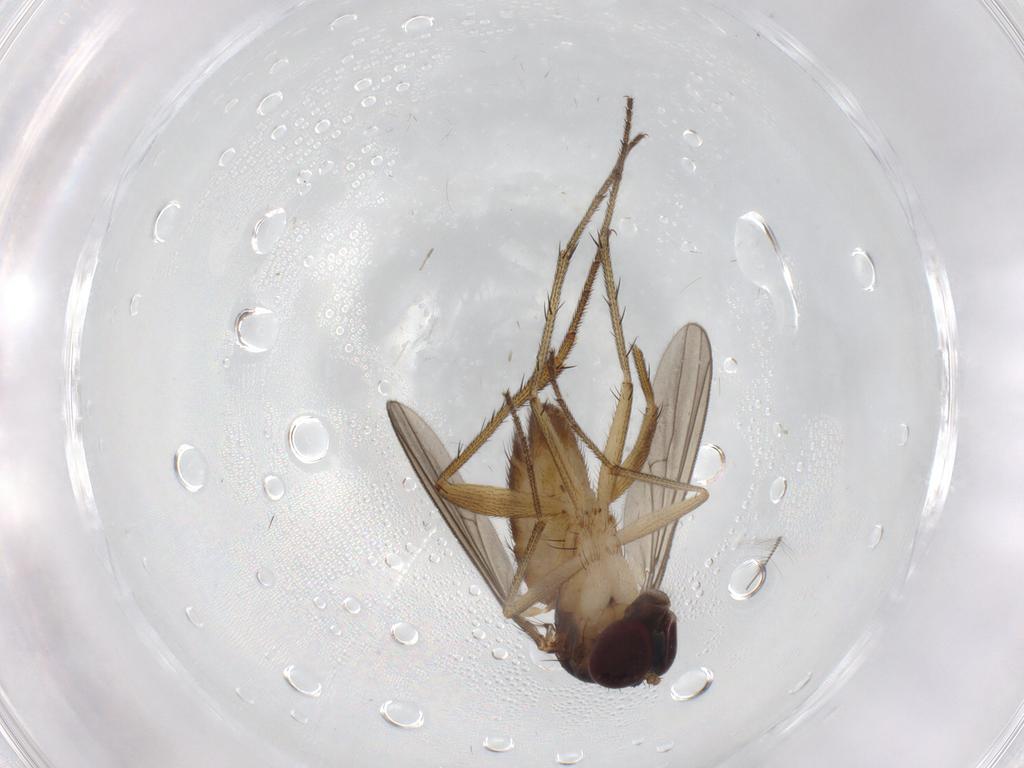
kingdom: Animalia
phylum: Arthropoda
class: Insecta
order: Diptera
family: Dolichopodidae
